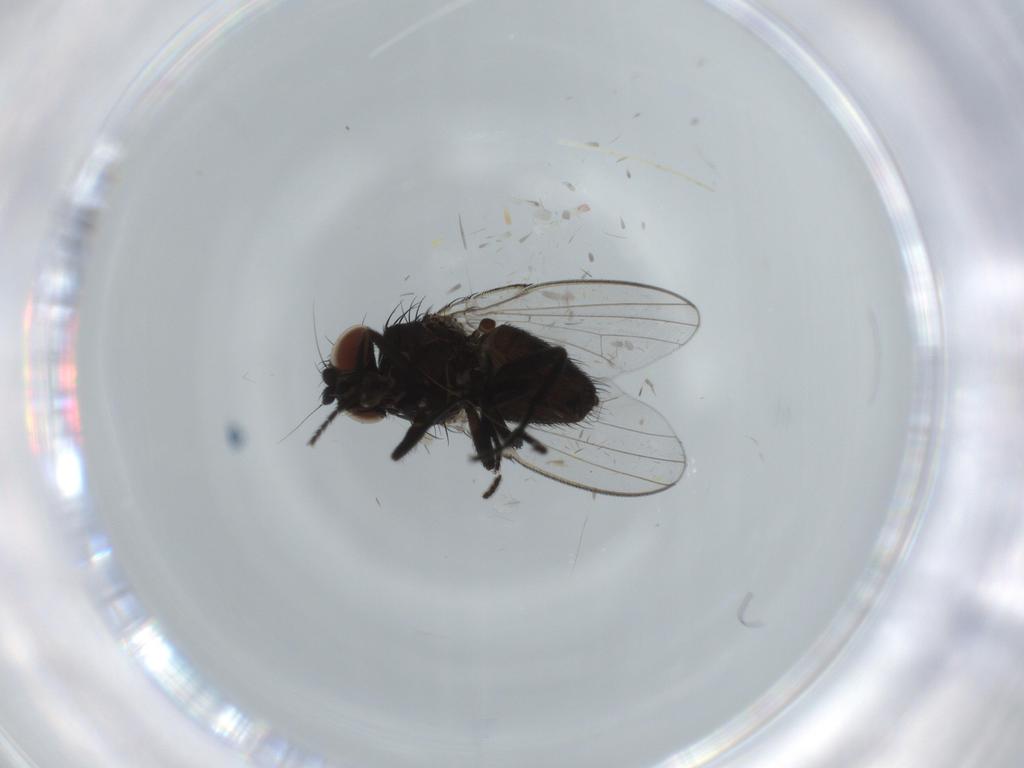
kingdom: Animalia
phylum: Arthropoda
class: Insecta
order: Diptera
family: Milichiidae
